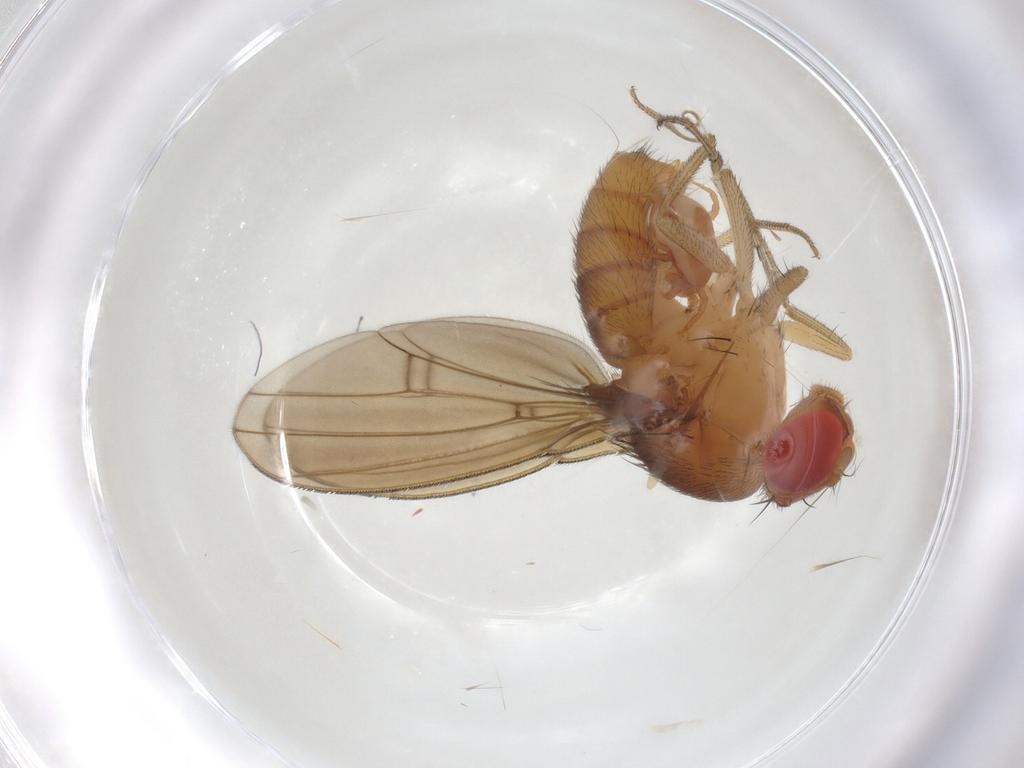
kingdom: Animalia
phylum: Arthropoda
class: Insecta
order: Diptera
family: Drosophilidae
